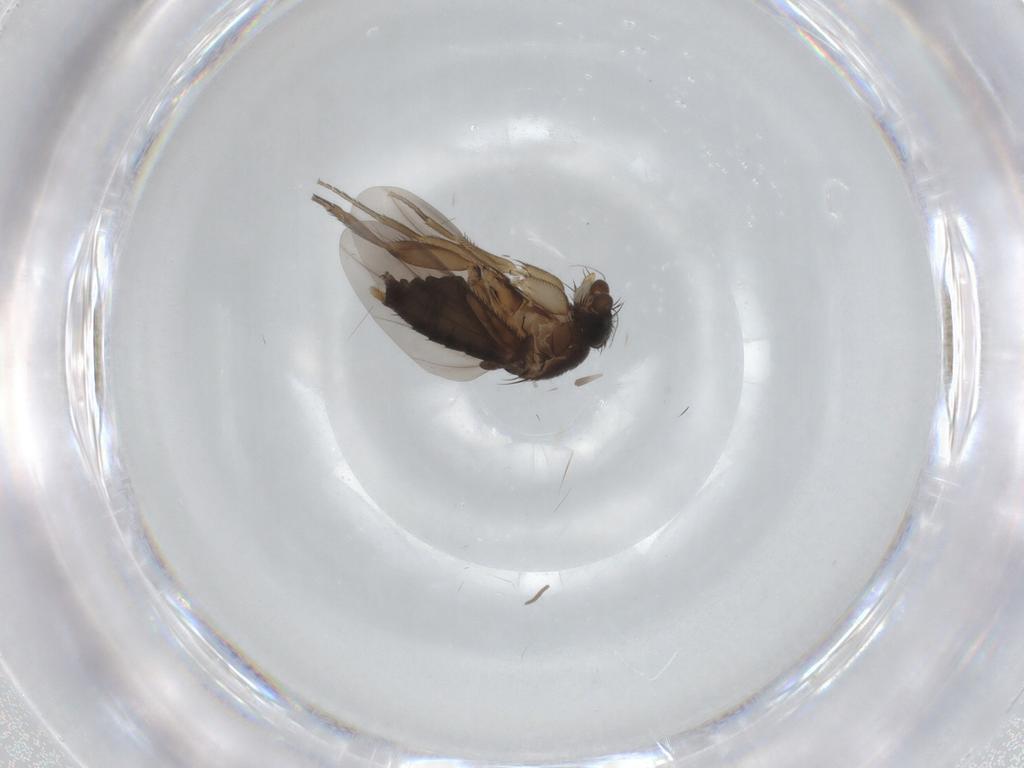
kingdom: Animalia
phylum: Arthropoda
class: Insecta
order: Diptera
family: Phoridae
